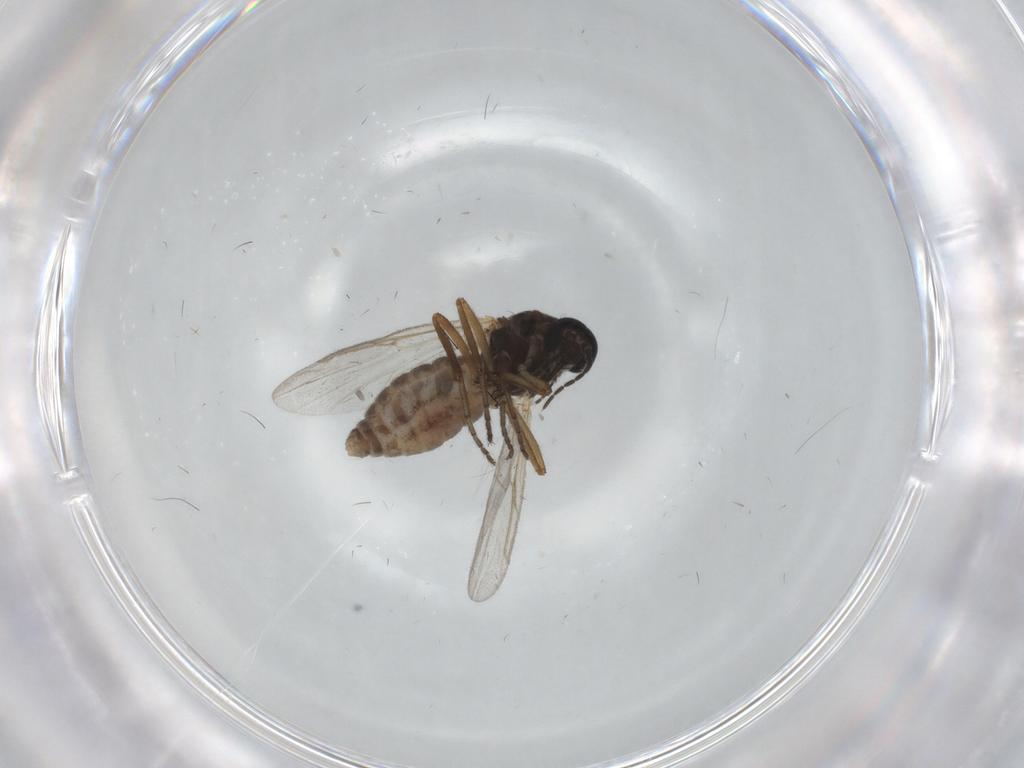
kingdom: Animalia
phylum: Arthropoda
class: Insecta
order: Diptera
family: Ceratopogonidae
